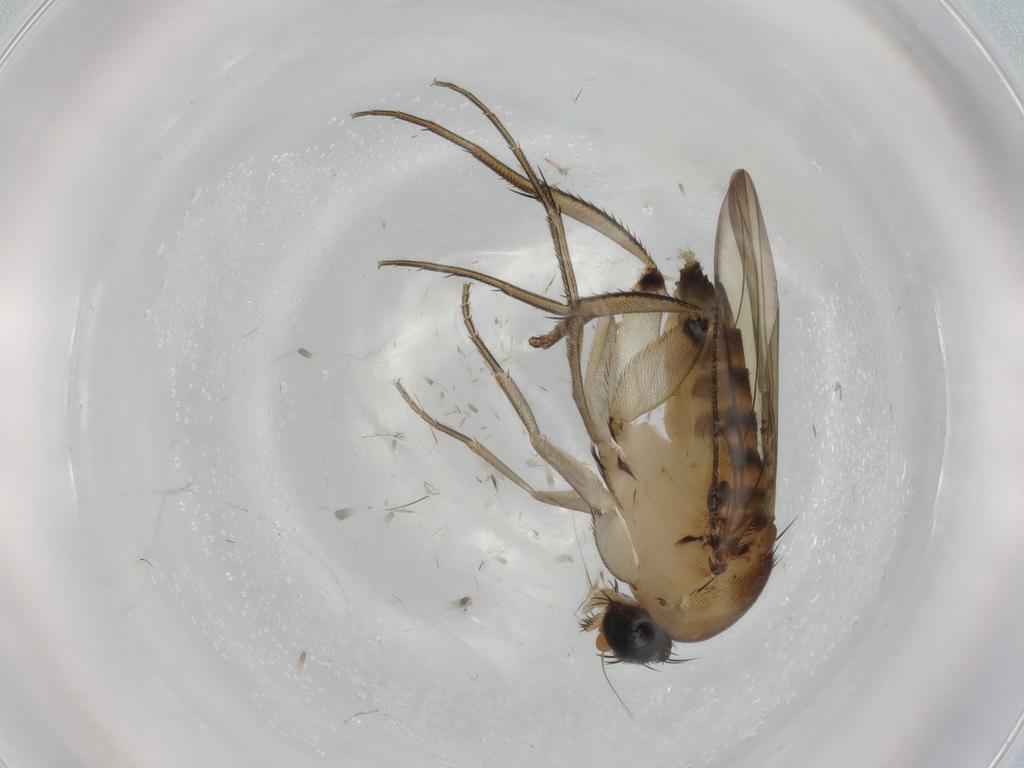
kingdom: Animalia
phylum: Arthropoda
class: Insecta
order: Diptera
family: Phoridae
